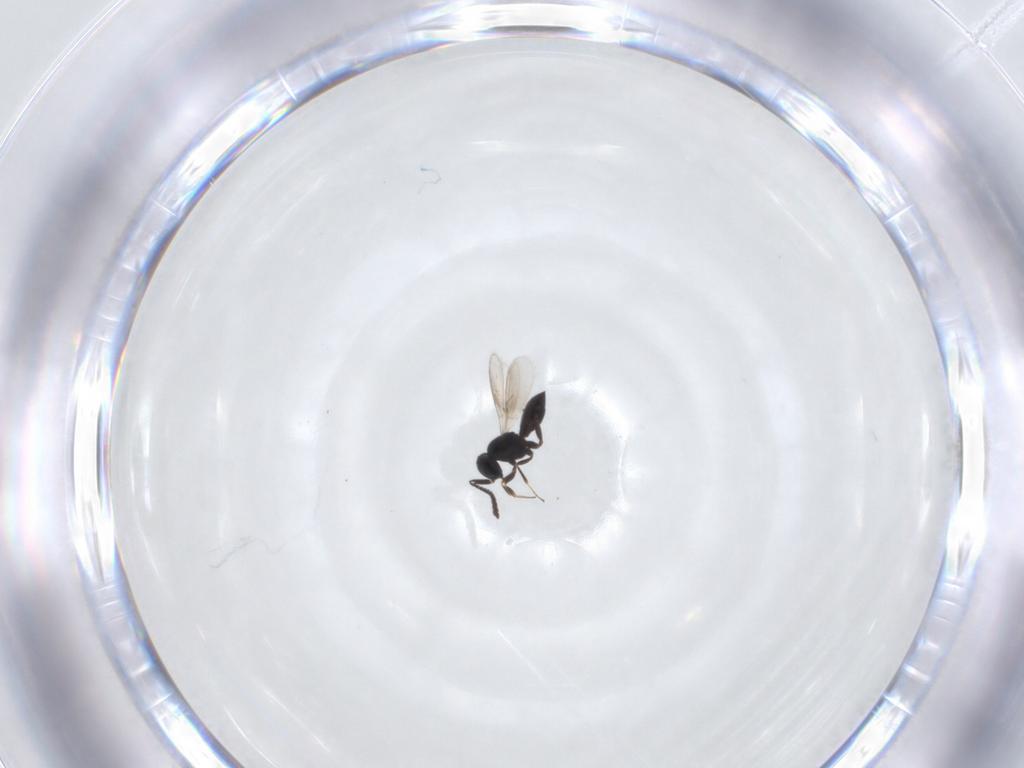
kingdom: Animalia
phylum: Arthropoda
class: Insecta
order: Hymenoptera
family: Scelionidae
